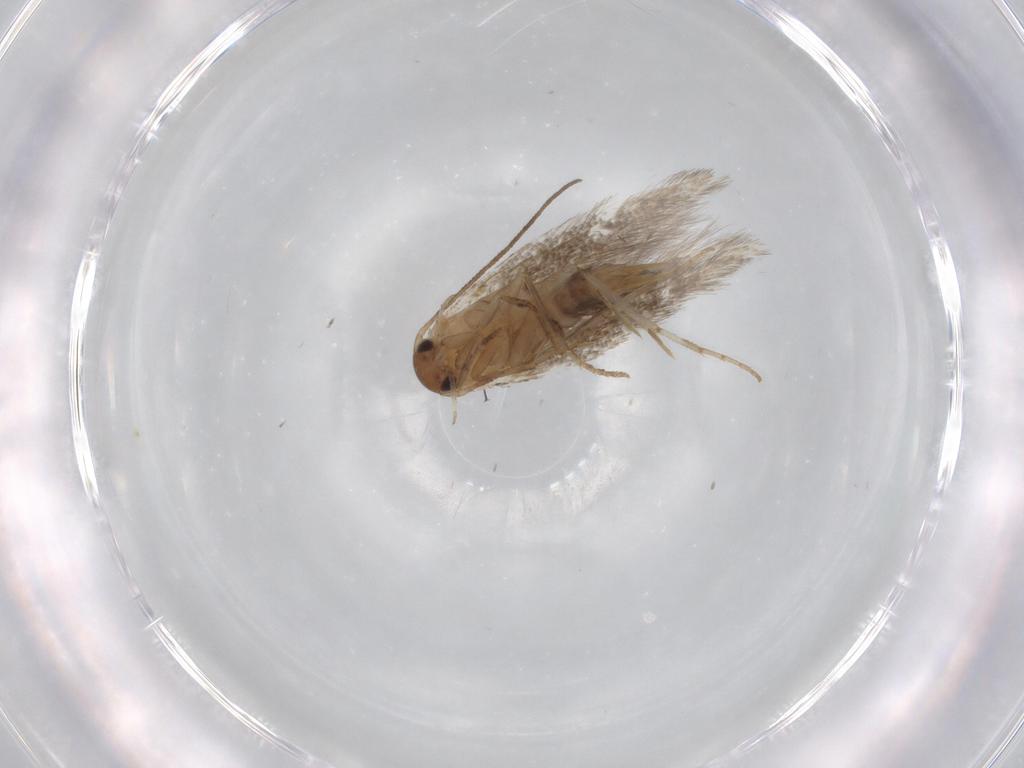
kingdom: Animalia
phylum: Arthropoda
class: Insecta
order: Lepidoptera
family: Elachistidae
